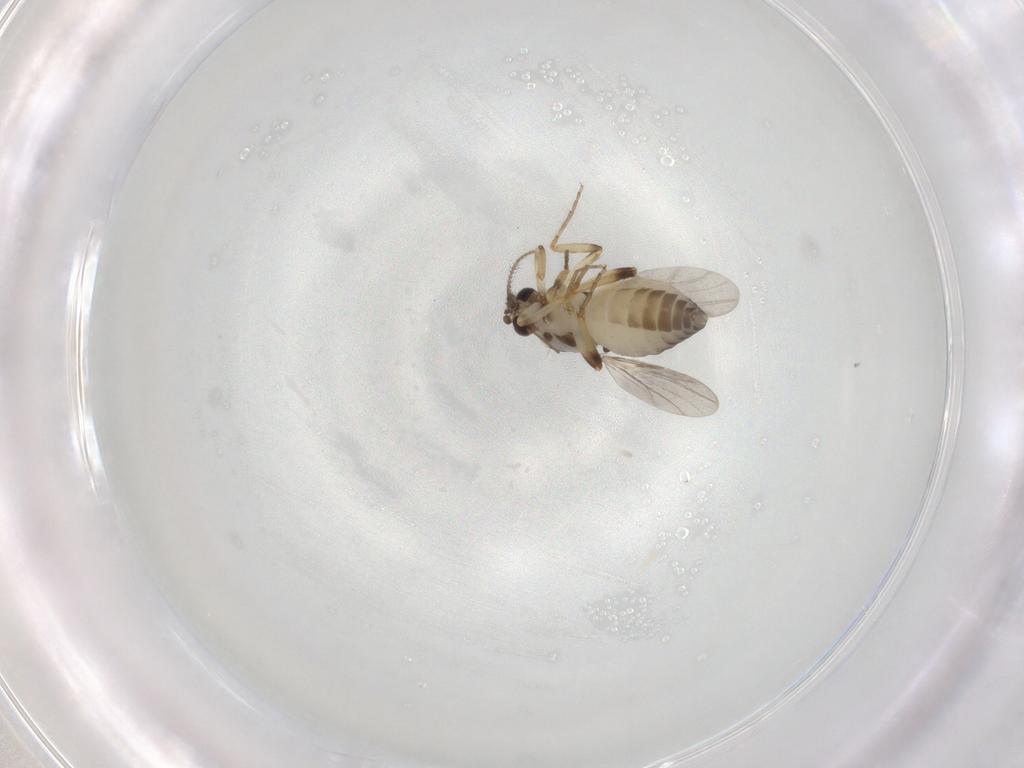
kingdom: Animalia
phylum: Arthropoda
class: Insecta
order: Diptera
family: Ceratopogonidae
